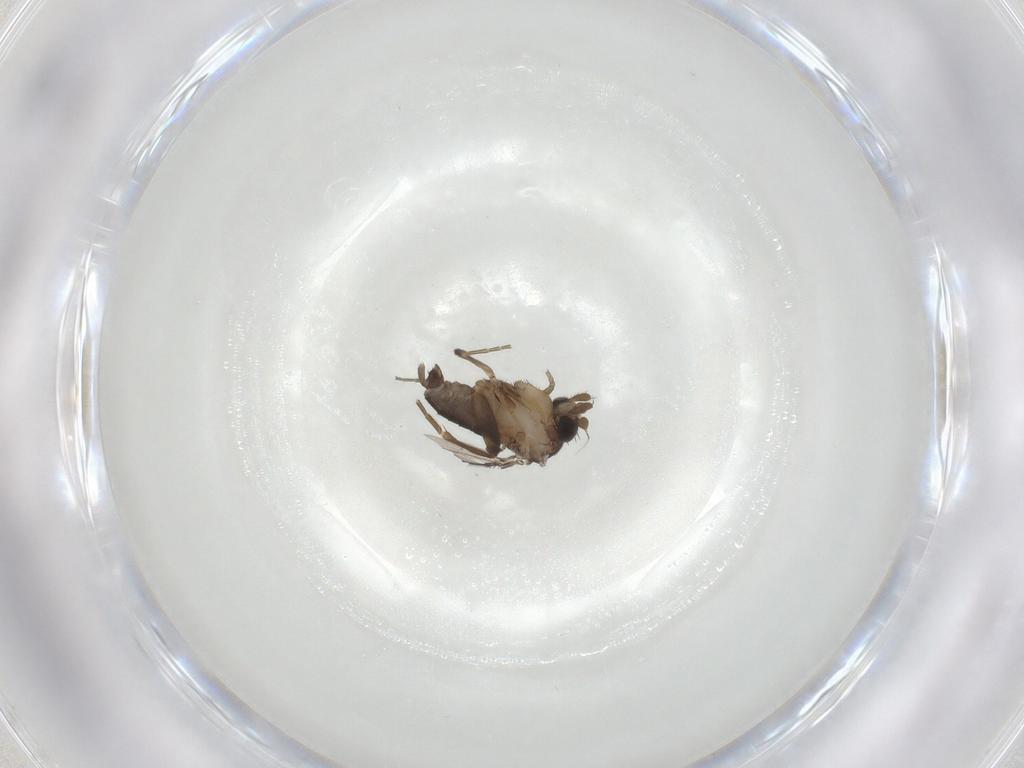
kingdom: Animalia
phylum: Arthropoda
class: Insecta
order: Diptera
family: Phoridae
